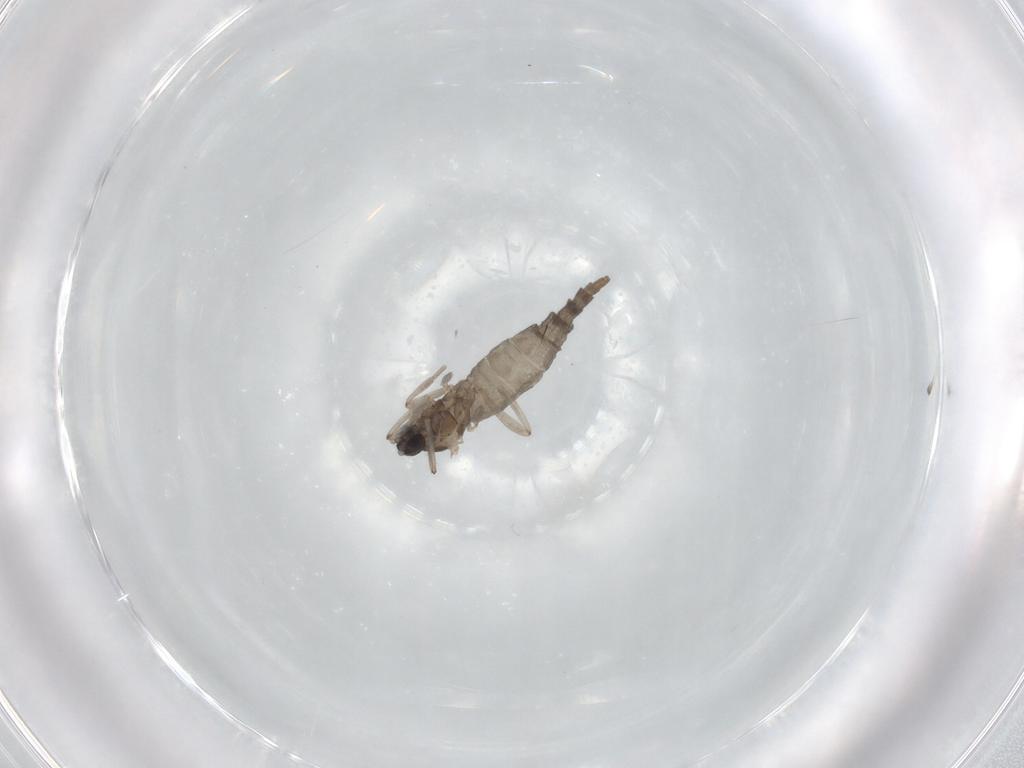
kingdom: Animalia
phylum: Arthropoda
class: Insecta
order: Diptera
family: Cecidomyiidae
